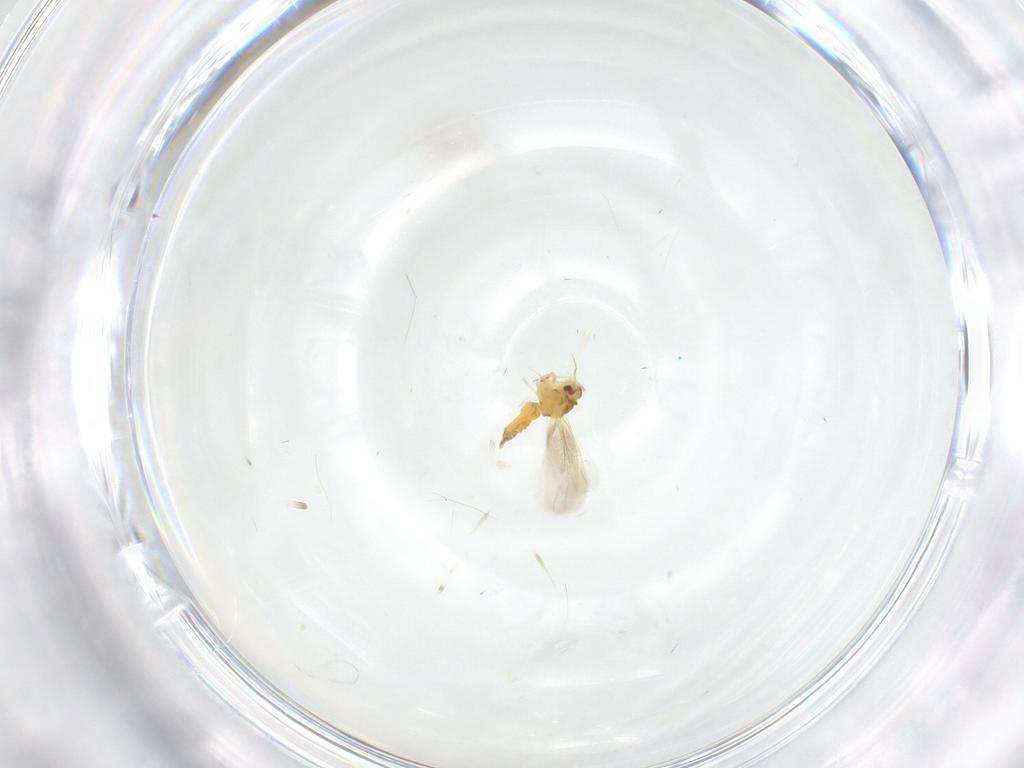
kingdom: Animalia
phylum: Arthropoda
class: Insecta
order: Hemiptera
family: Aleyrodidae
